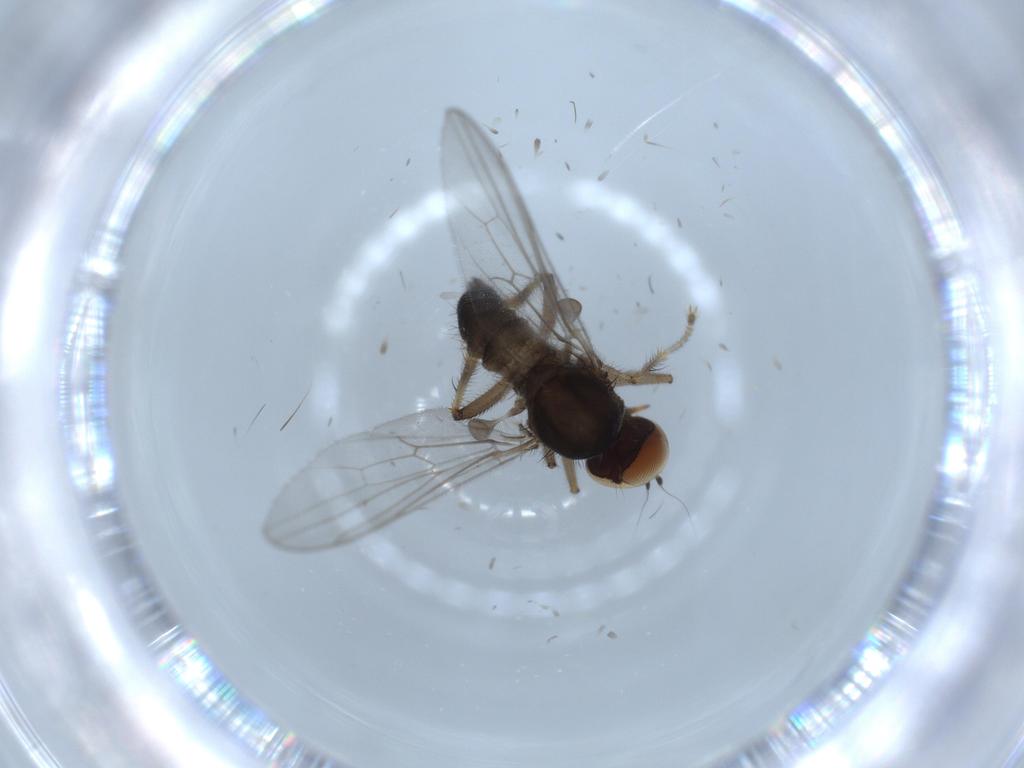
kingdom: Animalia
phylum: Arthropoda
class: Insecta
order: Diptera
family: Hybotidae
